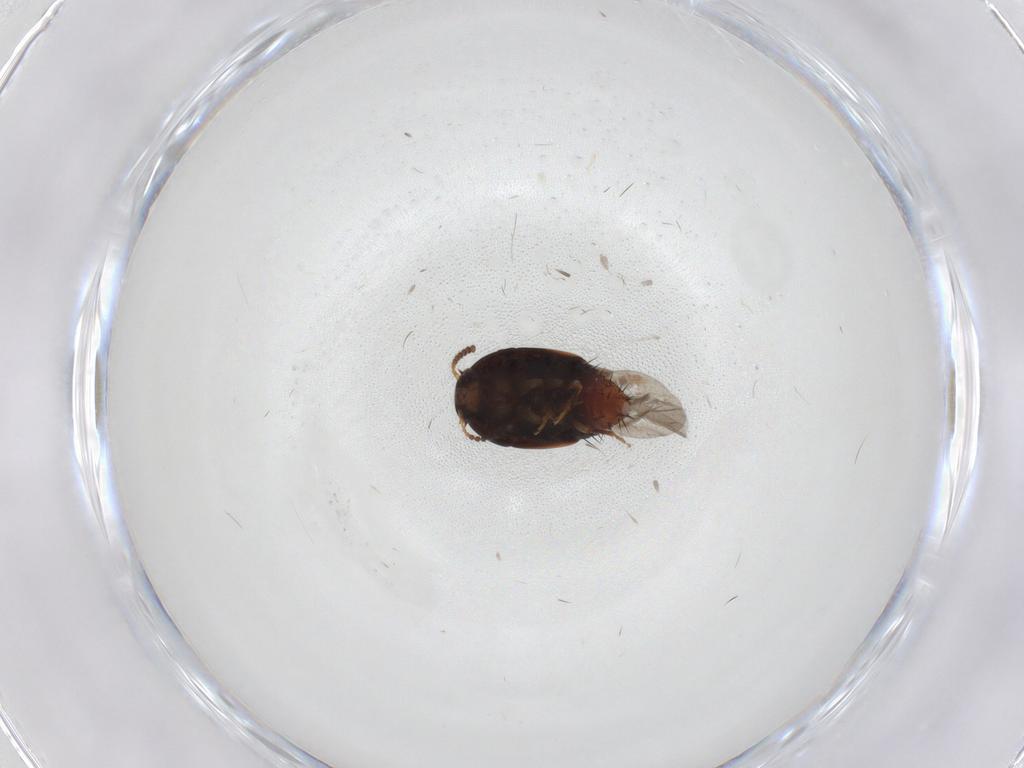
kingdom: Animalia
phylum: Arthropoda
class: Insecta
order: Coleoptera
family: Staphylinidae
